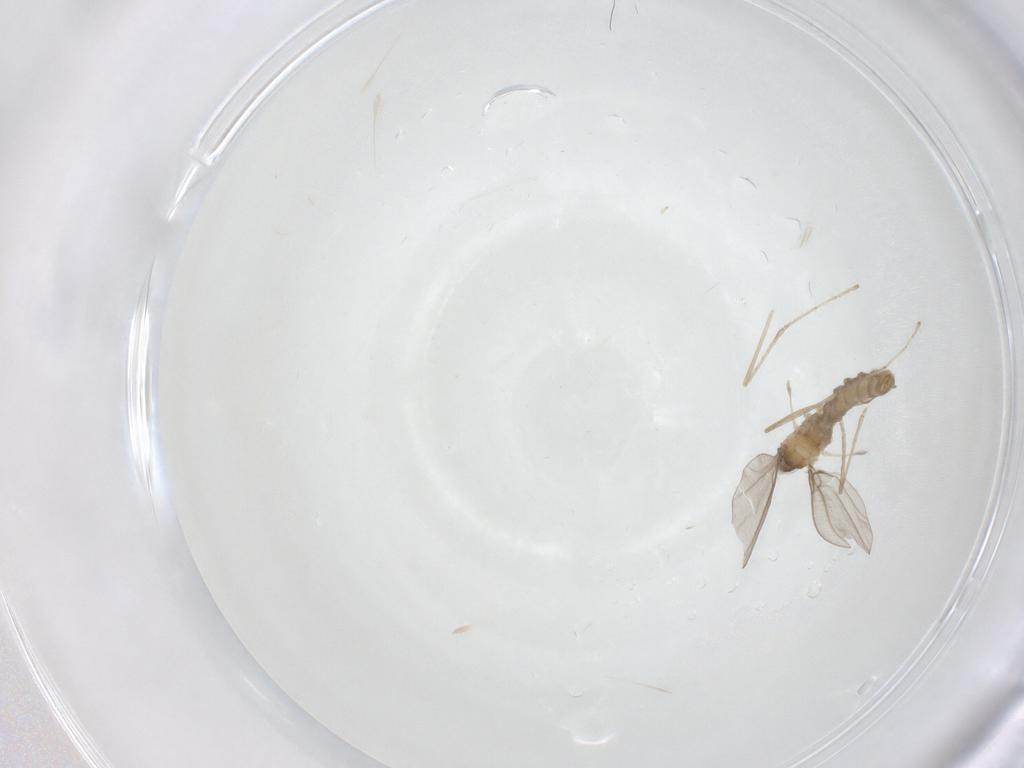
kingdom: Animalia
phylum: Arthropoda
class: Insecta
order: Diptera
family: Cecidomyiidae
